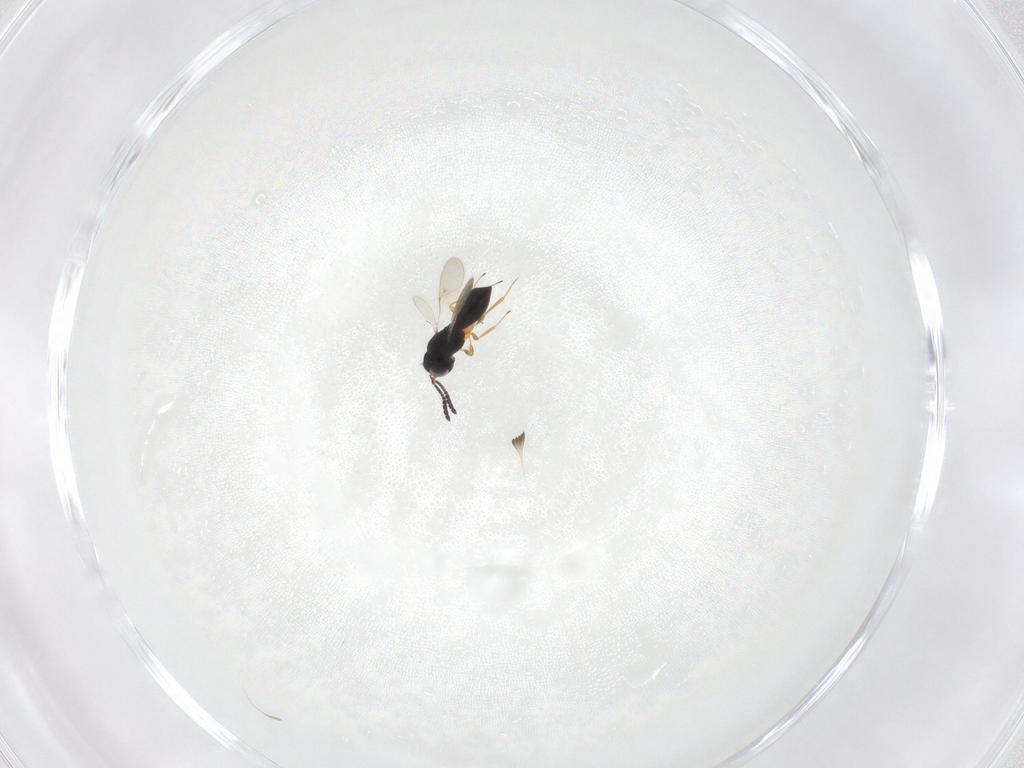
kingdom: Animalia
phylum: Arthropoda
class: Insecta
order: Hymenoptera
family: Scelionidae
